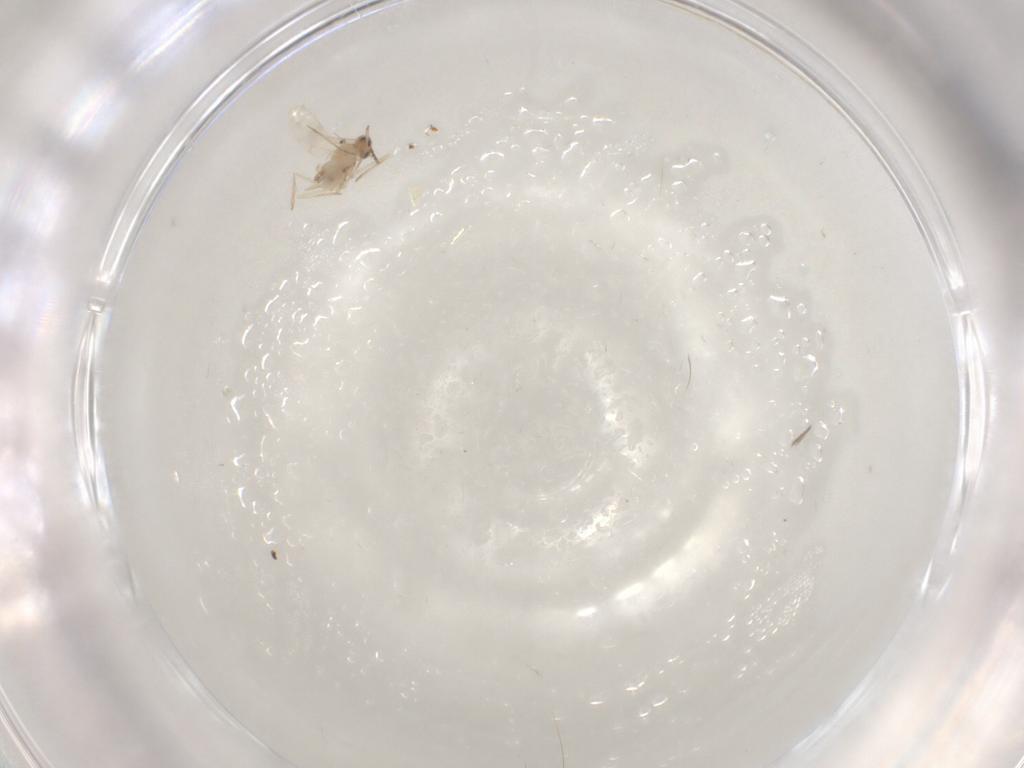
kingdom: Animalia
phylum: Arthropoda
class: Insecta
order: Diptera
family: Cecidomyiidae
